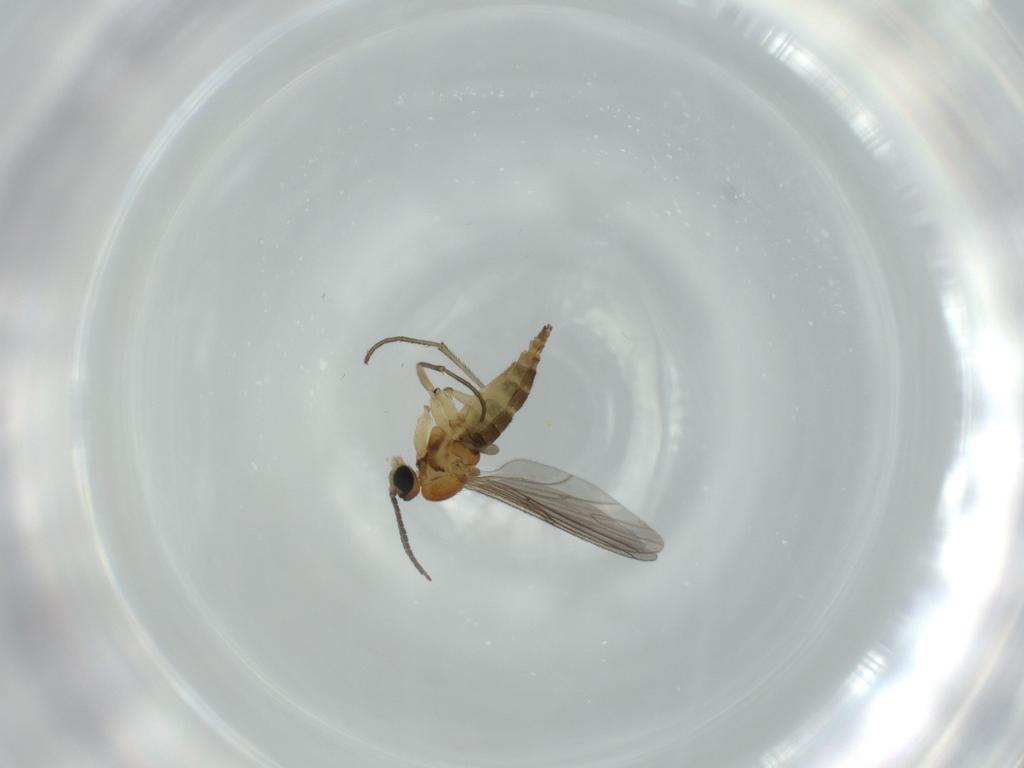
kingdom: Animalia
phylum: Arthropoda
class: Insecta
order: Diptera
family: Sciaridae
